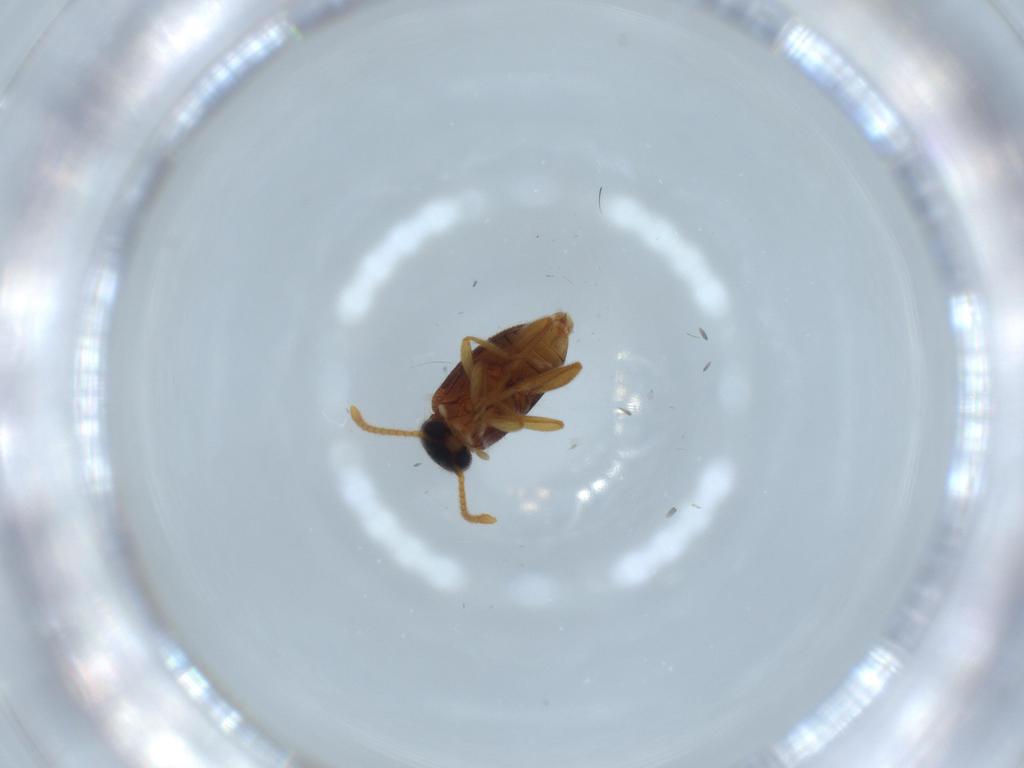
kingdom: Animalia
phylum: Arthropoda
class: Insecta
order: Coleoptera
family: Aderidae
